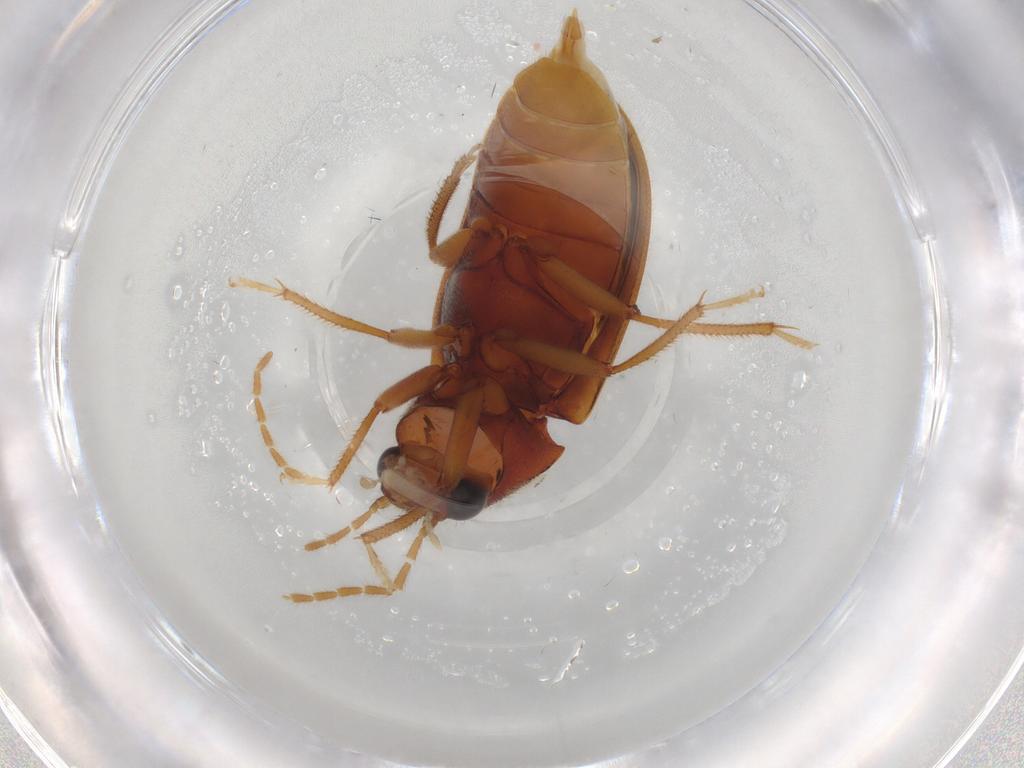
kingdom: Animalia
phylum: Arthropoda
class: Insecta
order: Coleoptera
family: Ptilodactylidae
